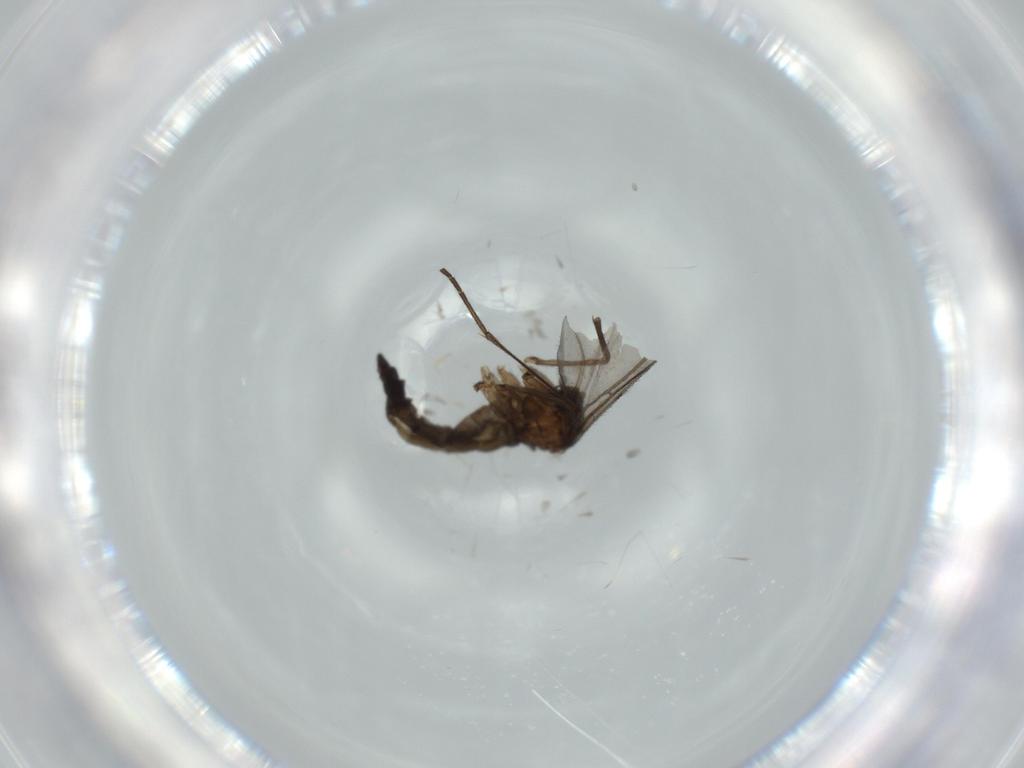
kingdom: Animalia
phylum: Arthropoda
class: Insecta
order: Diptera
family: Sciaridae
